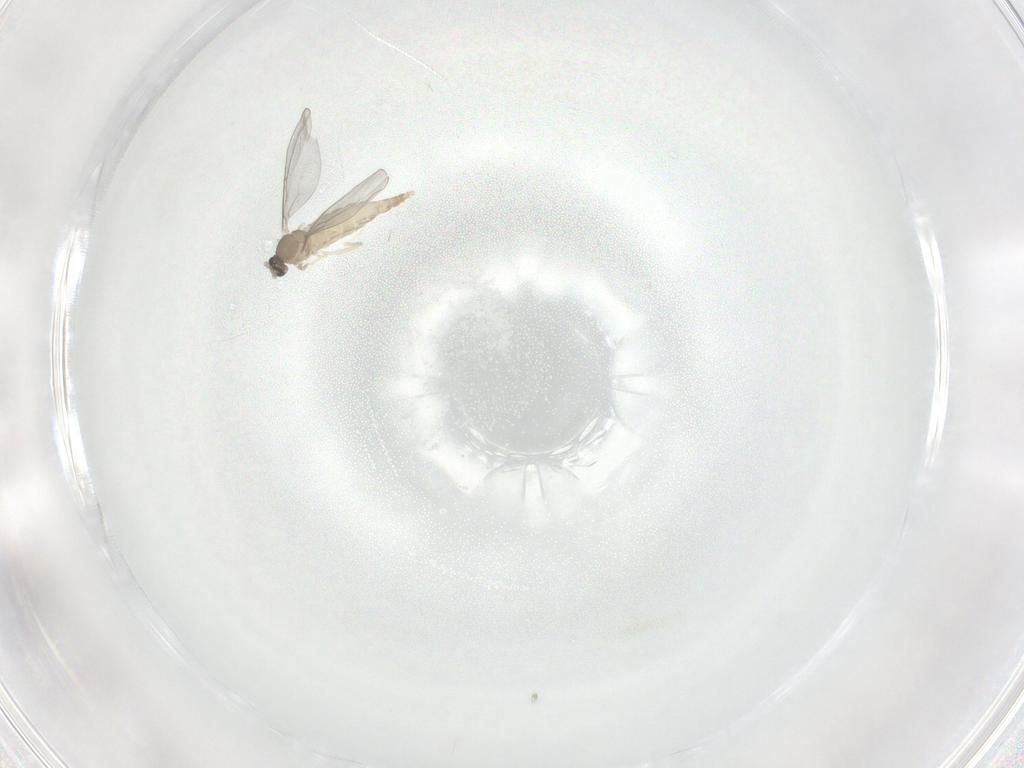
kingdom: Animalia
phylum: Arthropoda
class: Insecta
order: Diptera
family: Cecidomyiidae
